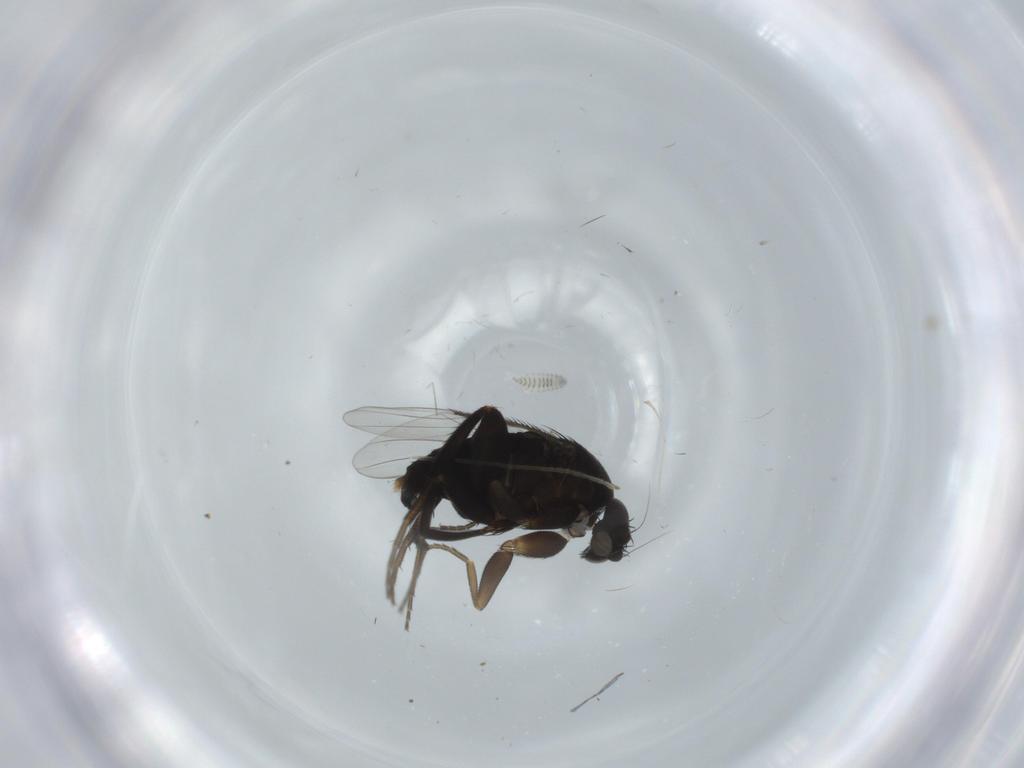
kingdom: Animalia
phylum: Arthropoda
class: Insecta
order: Diptera
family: Phoridae
